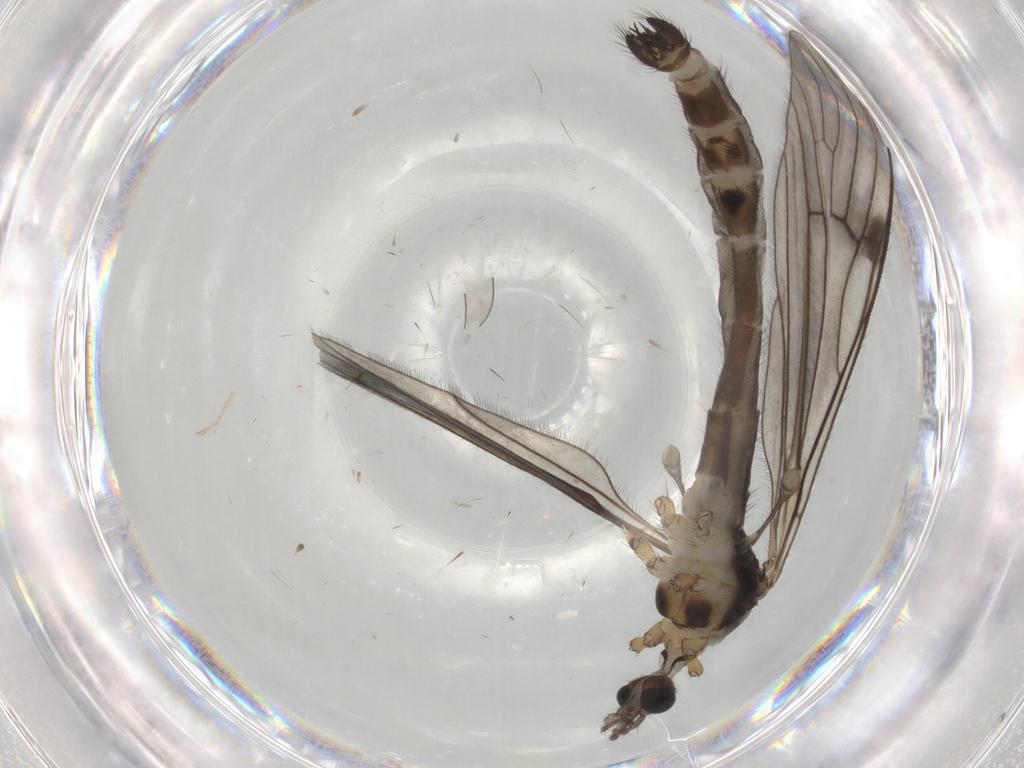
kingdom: Animalia
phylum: Arthropoda
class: Insecta
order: Diptera
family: Limoniidae
